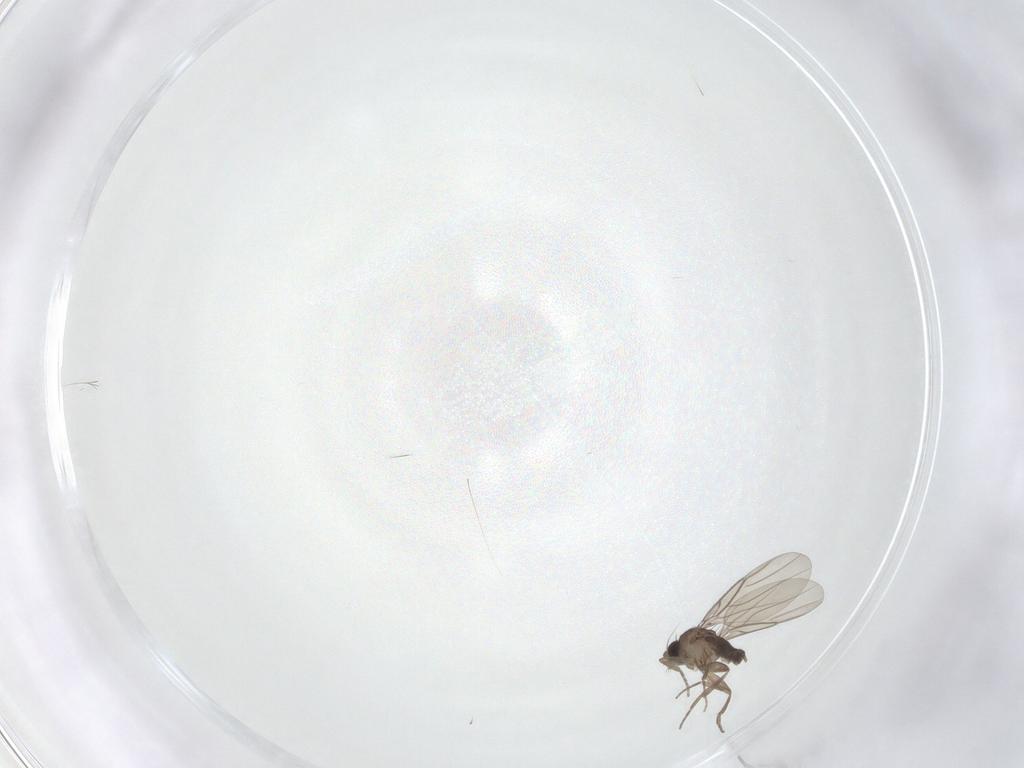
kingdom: Animalia
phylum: Arthropoda
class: Insecta
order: Diptera
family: Phoridae
